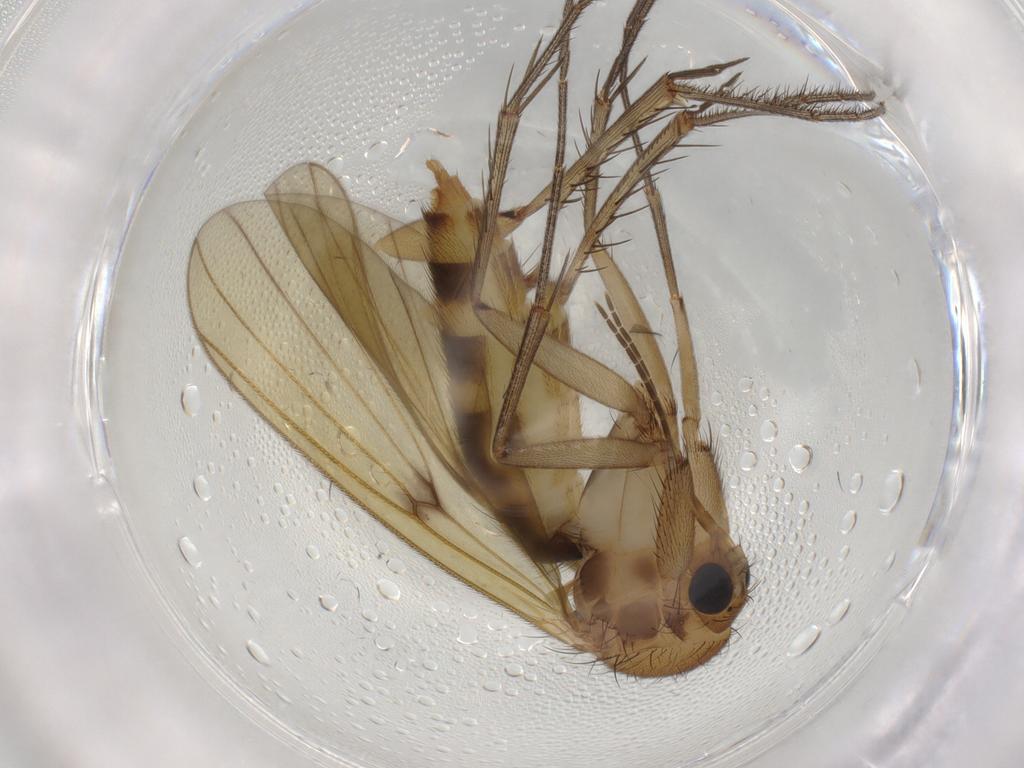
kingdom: Animalia
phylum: Arthropoda
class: Insecta
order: Diptera
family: Mycetophilidae
